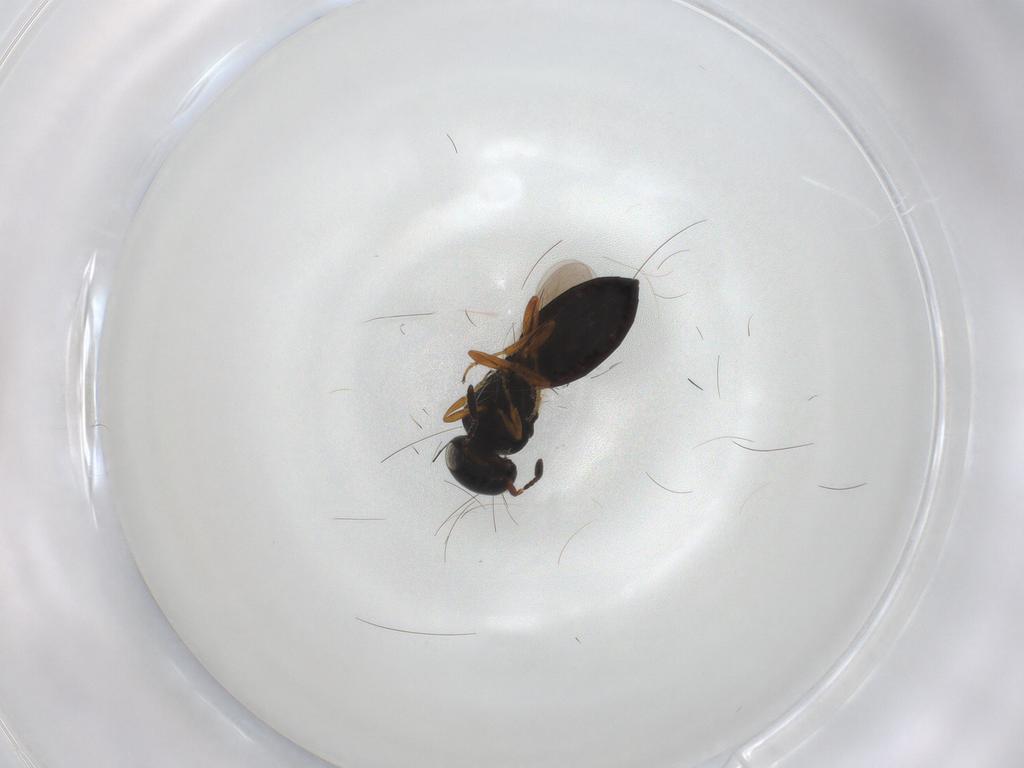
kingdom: Animalia
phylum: Arthropoda
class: Insecta
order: Hymenoptera
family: Scelionidae
